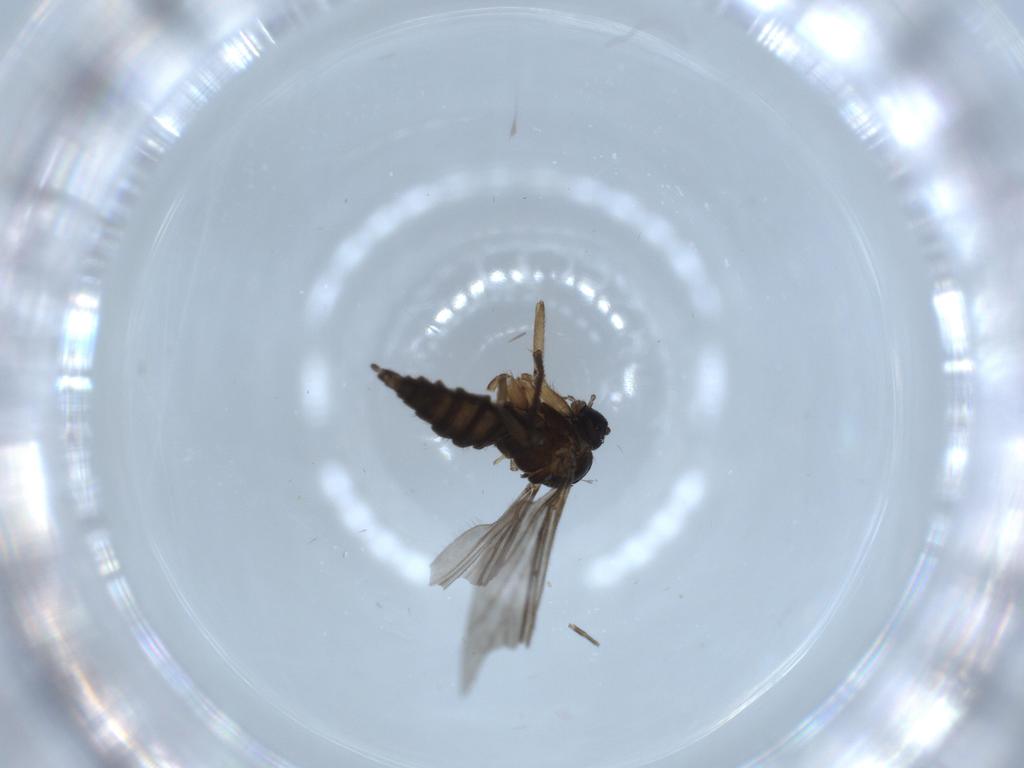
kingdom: Animalia
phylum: Arthropoda
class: Insecta
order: Diptera
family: Sciaridae
